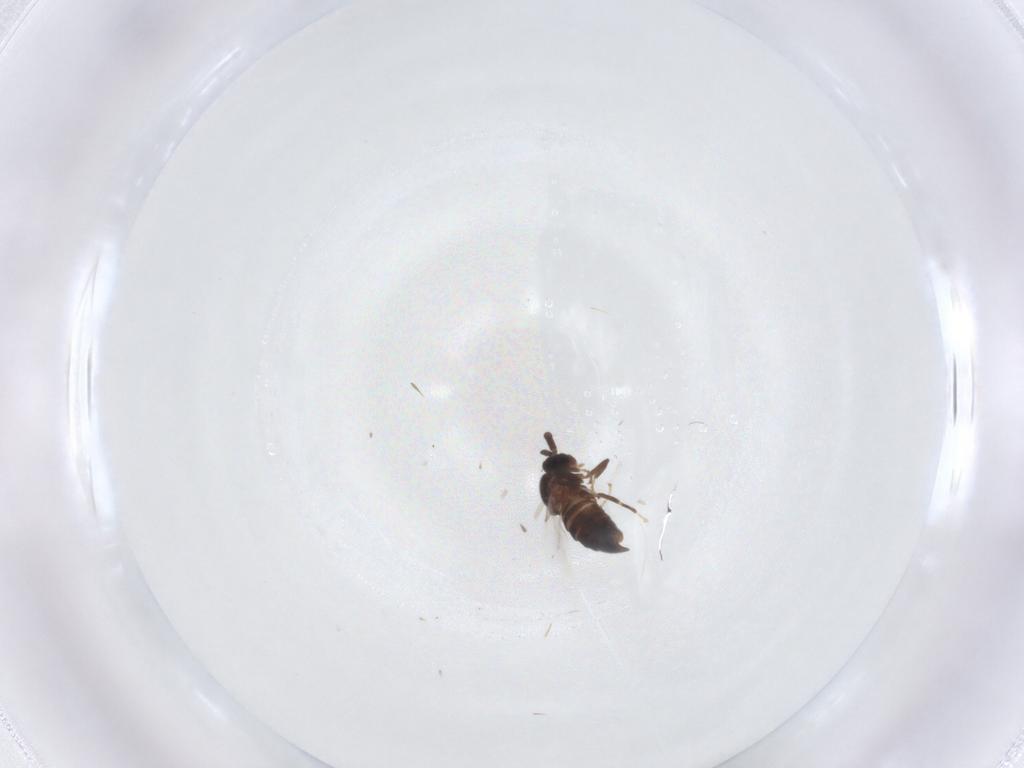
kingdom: Animalia
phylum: Arthropoda
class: Insecta
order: Diptera
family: Scatopsidae
